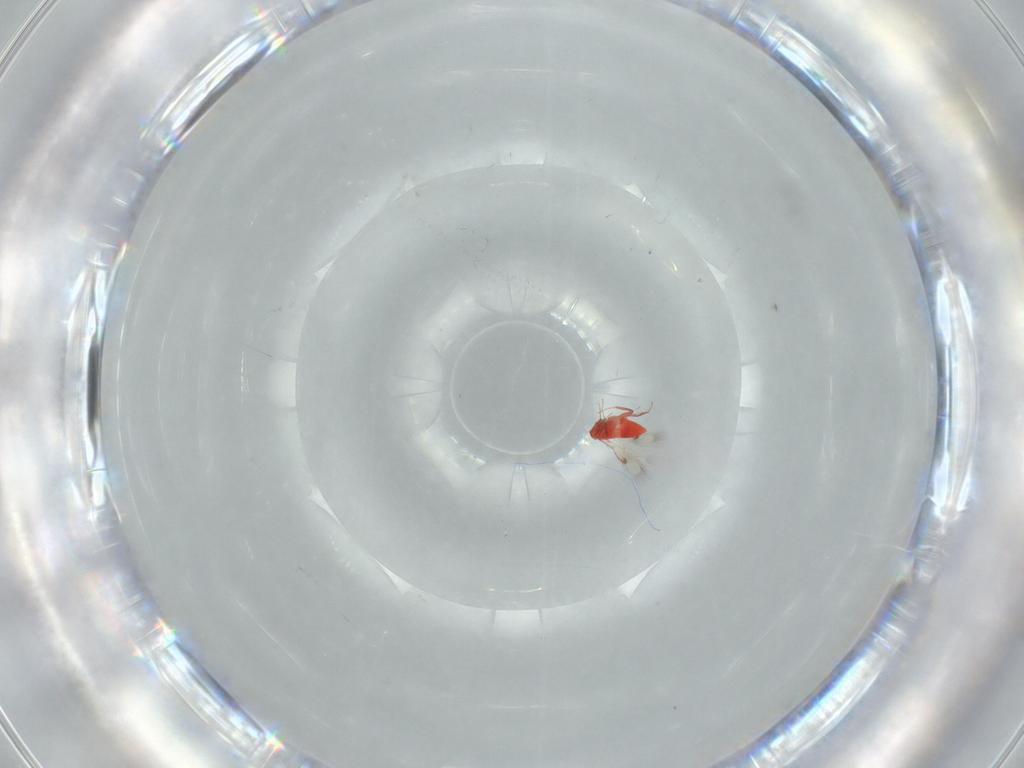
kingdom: Animalia
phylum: Arthropoda
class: Insecta
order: Hymenoptera
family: Trichogrammatidae
